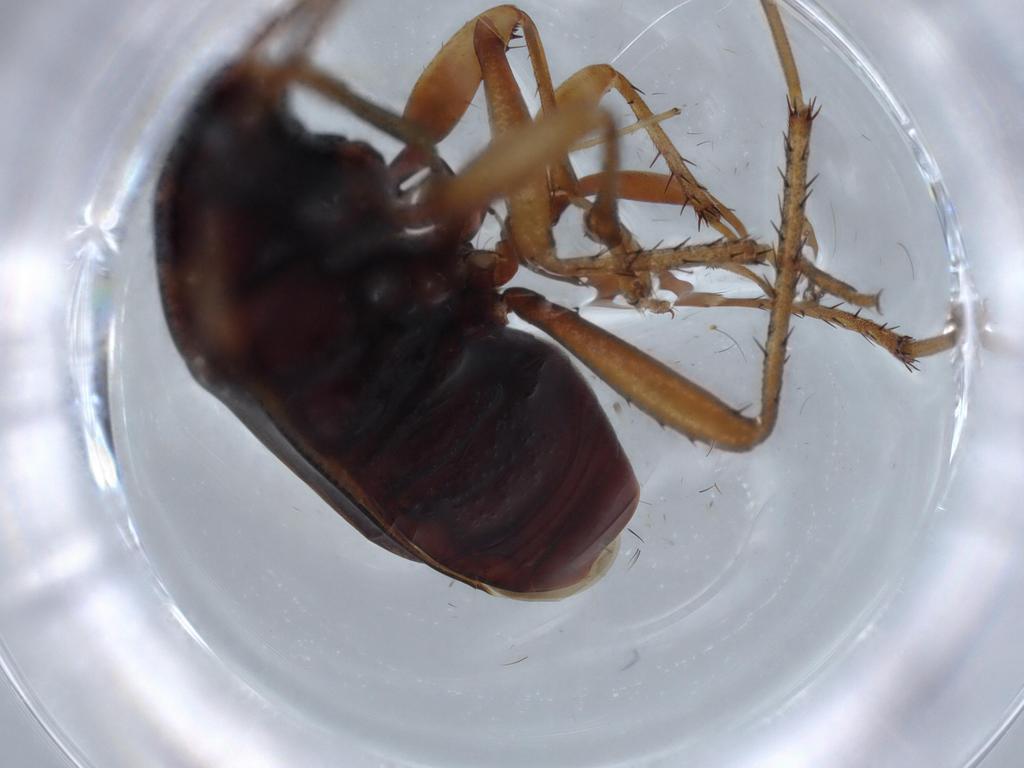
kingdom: Animalia
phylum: Arthropoda
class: Insecta
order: Hemiptera
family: Rhyparochromidae
